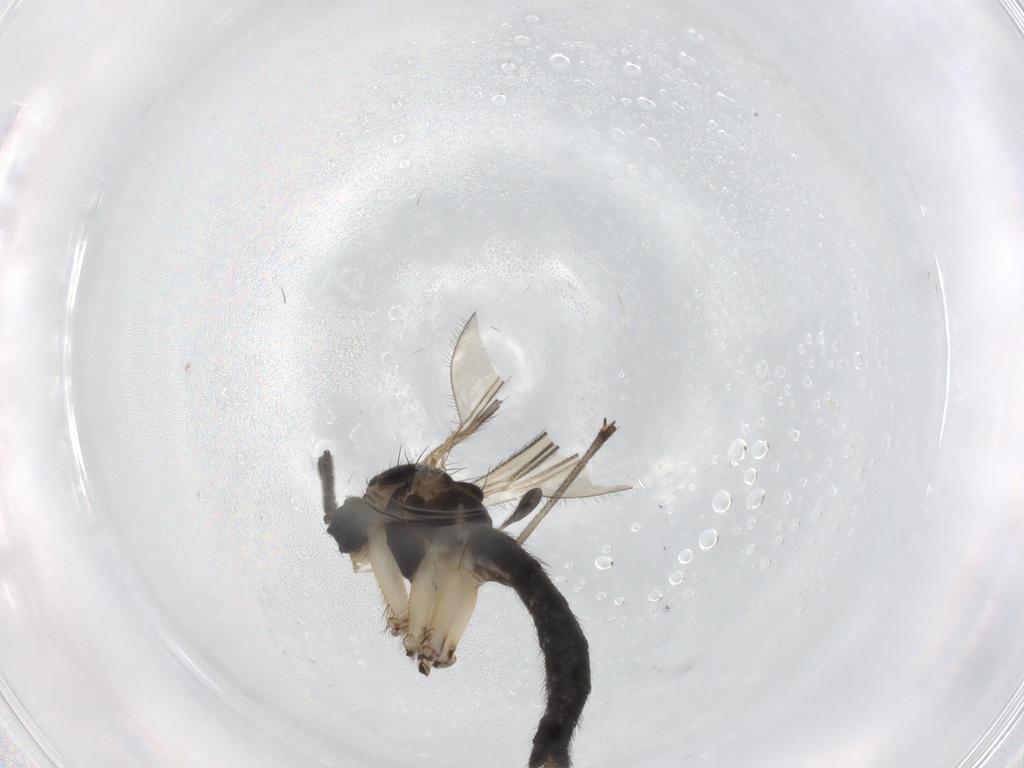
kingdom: Animalia
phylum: Arthropoda
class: Insecta
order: Diptera
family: Sciaridae
